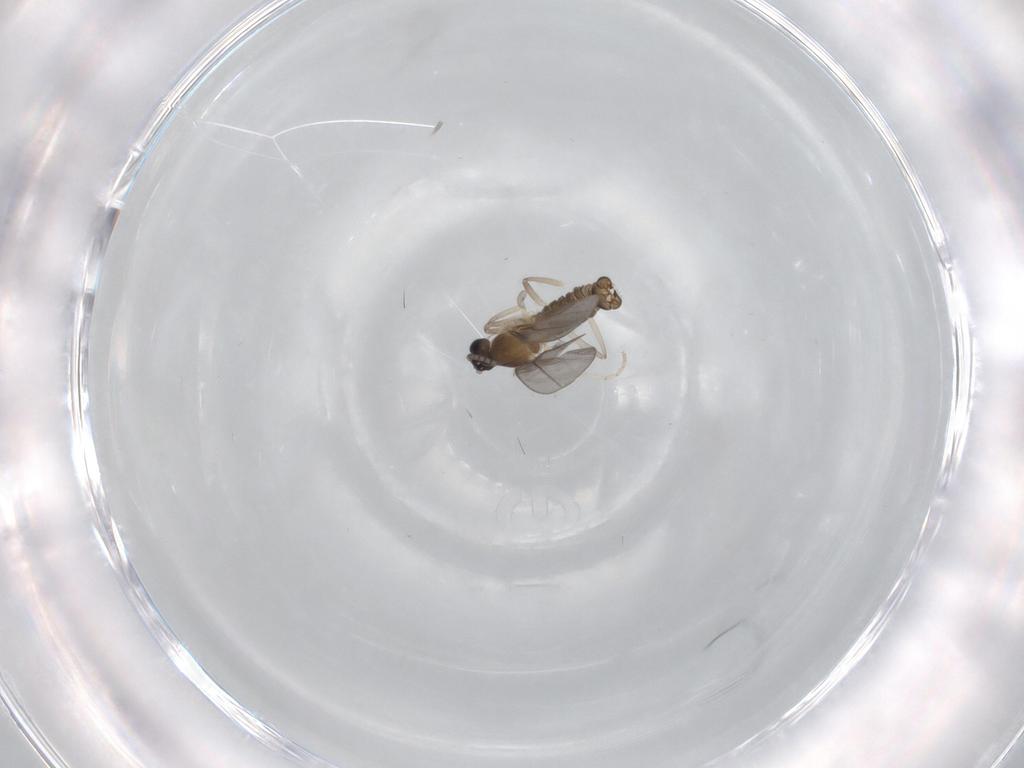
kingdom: Animalia
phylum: Arthropoda
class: Insecta
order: Diptera
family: Cecidomyiidae
